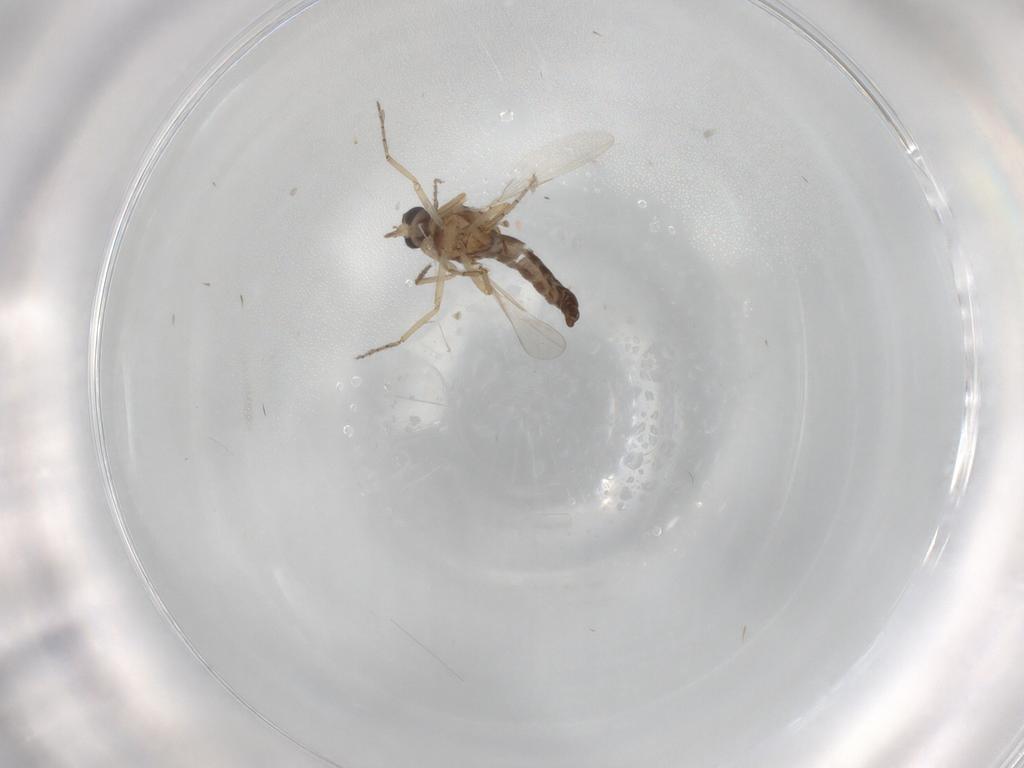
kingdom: Animalia
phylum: Arthropoda
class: Insecta
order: Diptera
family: Ceratopogonidae
